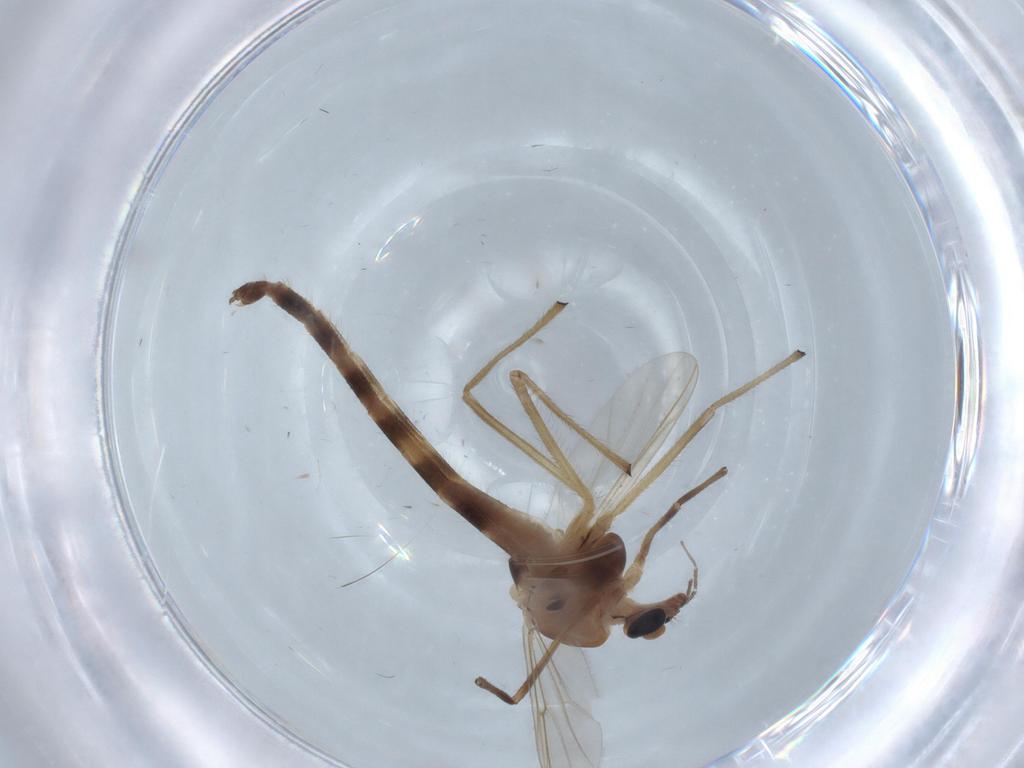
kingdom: Animalia
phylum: Arthropoda
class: Insecta
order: Diptera
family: Chironomidae
